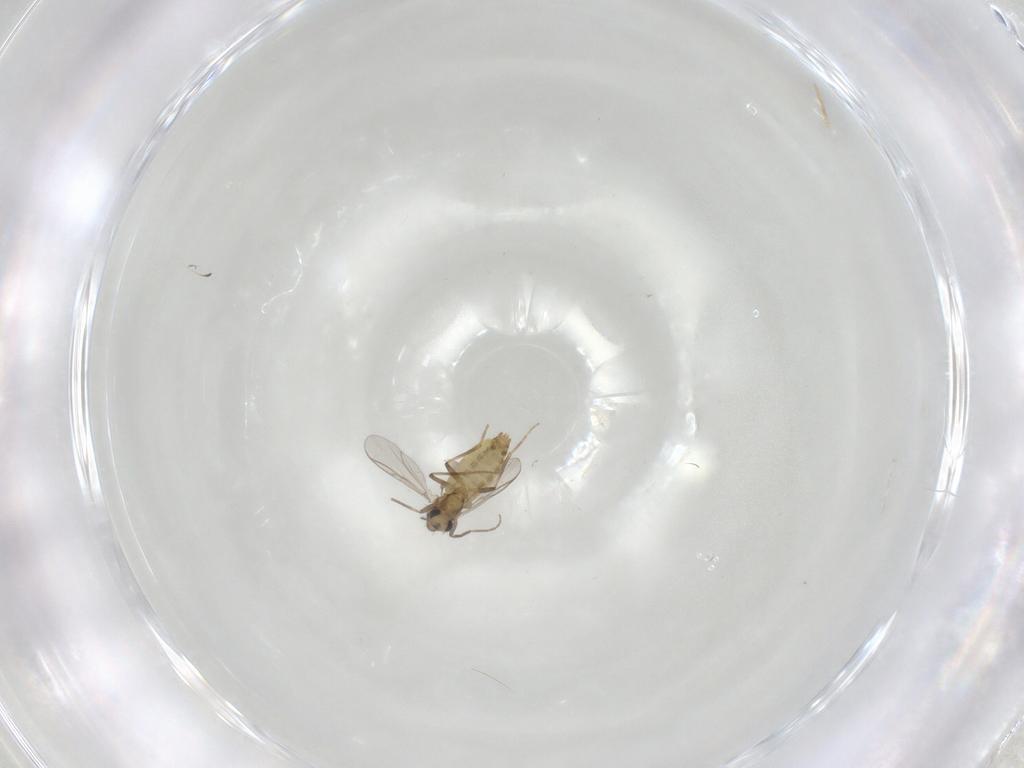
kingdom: Animalia
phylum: Arthropoda
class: Insecta
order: Diptera
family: Chironomidae
